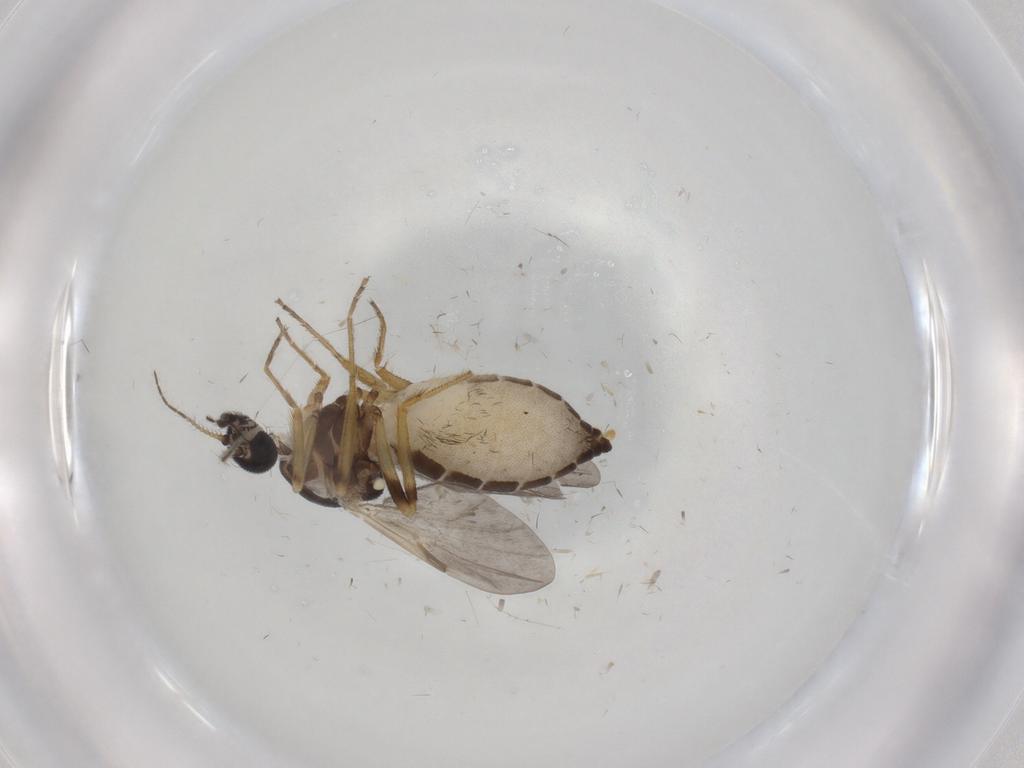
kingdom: Animalia
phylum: Arthropoda
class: Insecta
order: Diptera
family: Ceratopogonidae
